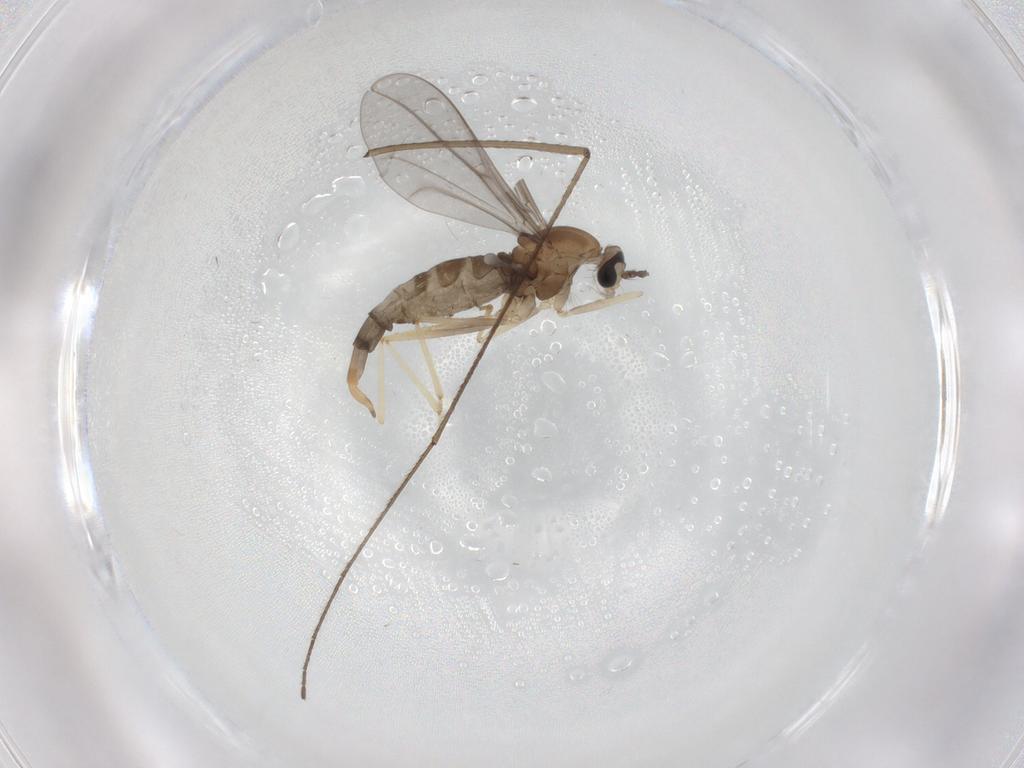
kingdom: Animalia
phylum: Arthropoda
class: Insecta
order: Diptera
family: Cecidomyiidae
